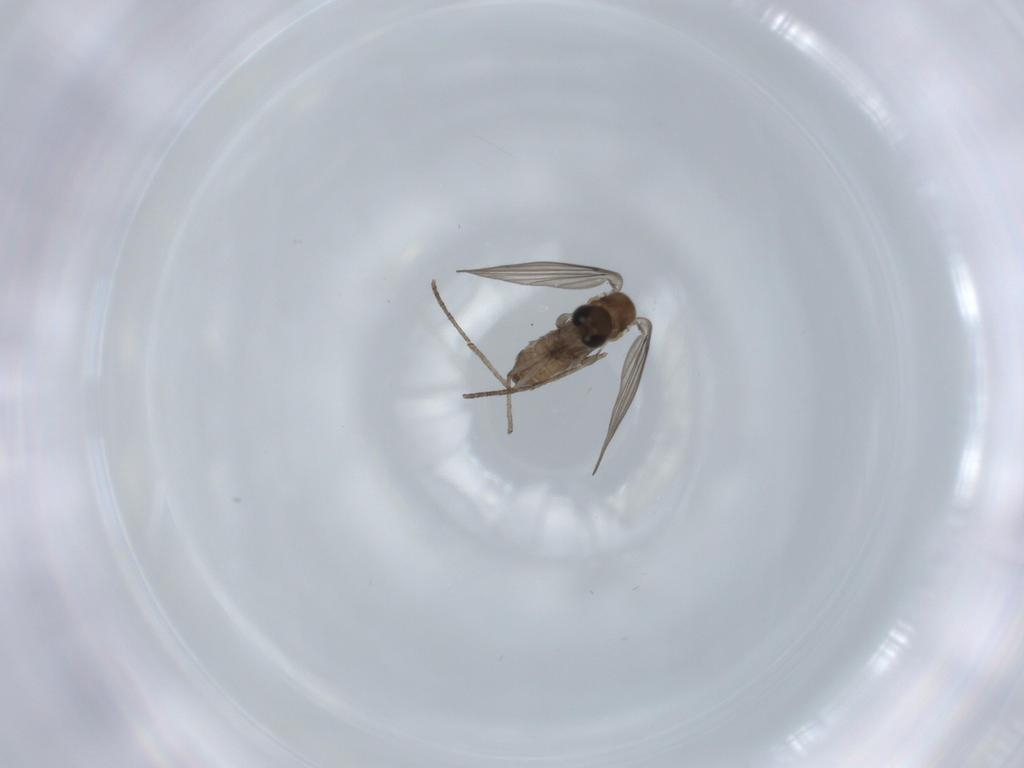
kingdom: Animalia
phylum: Arthropoda
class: Insecta
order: Diptera
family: Psychodidae
